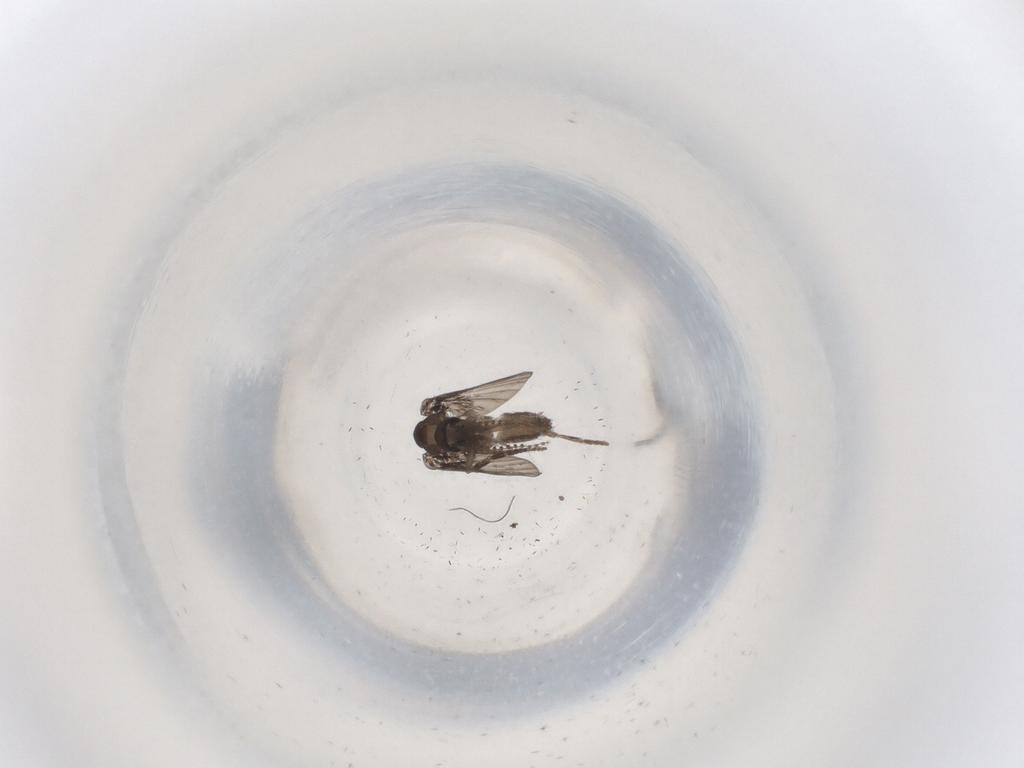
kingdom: Animalia
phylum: Arthropoda
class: Insecta
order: Diptera
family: Psychodidae
